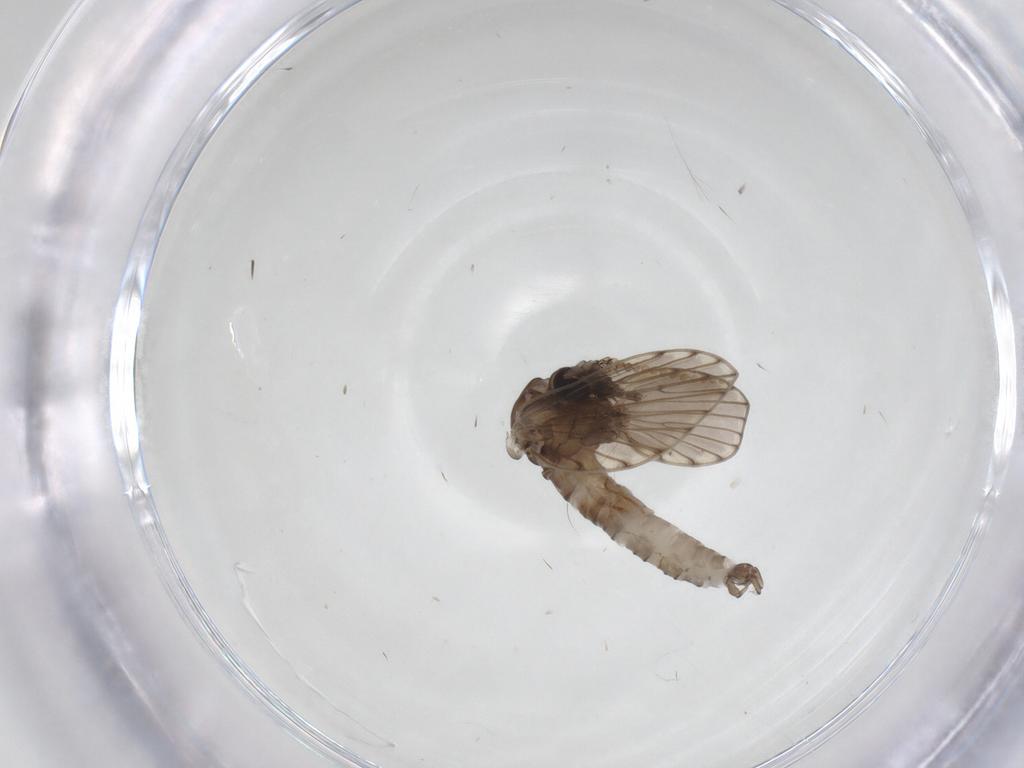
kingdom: Animalia
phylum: Arthropoda
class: Insecta
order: Diptera
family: Psychodidae
